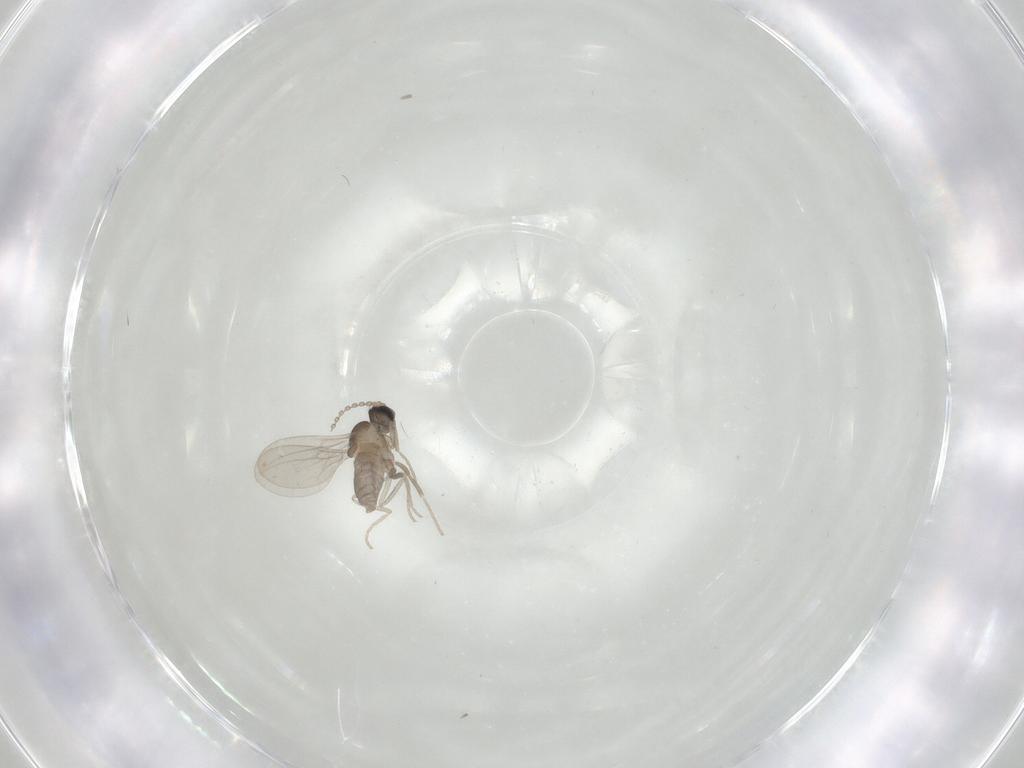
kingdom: Animalia
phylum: Arthropoda
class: Insecta
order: Diptera
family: Cecidomyiidae
